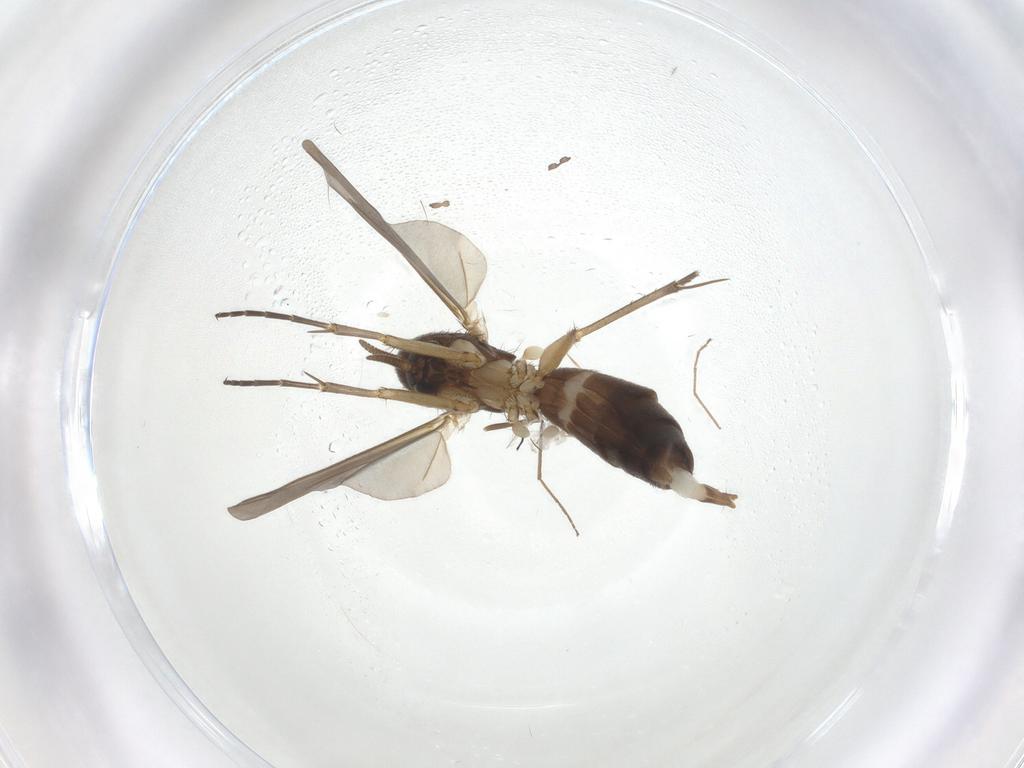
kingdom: Animalia
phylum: Arthropoda
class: Insecta
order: Diptera
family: Mycetophilidae
